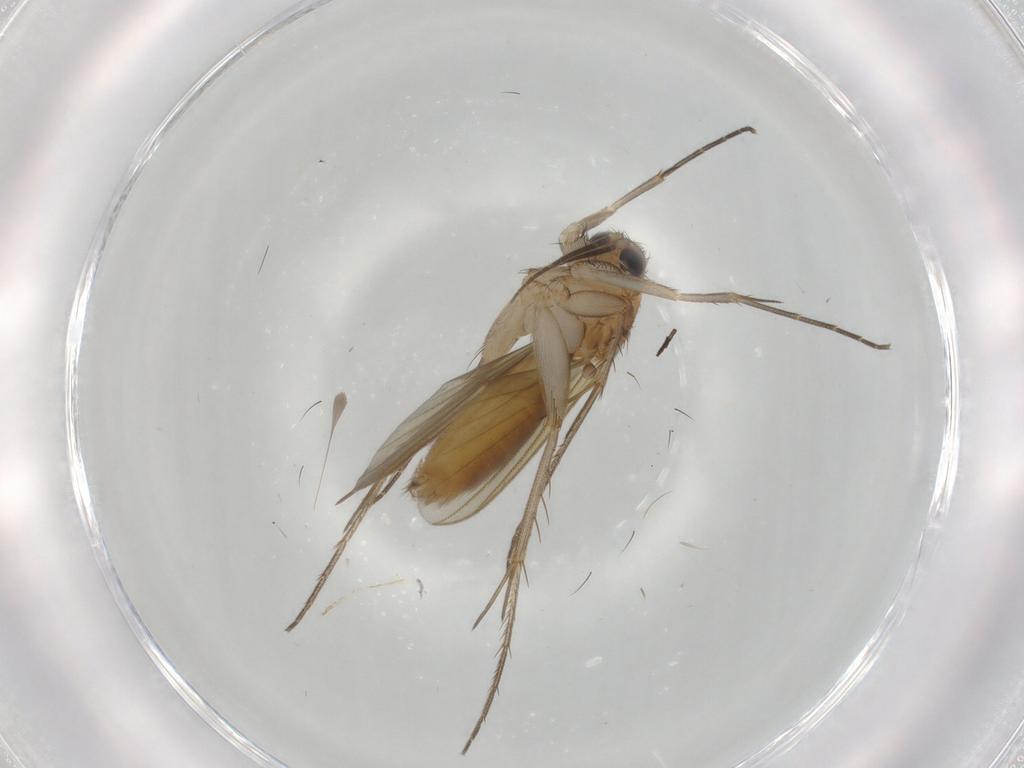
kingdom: Animalia
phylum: Arthropoda
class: Insecta
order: Diptera
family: Mycetophilidae
